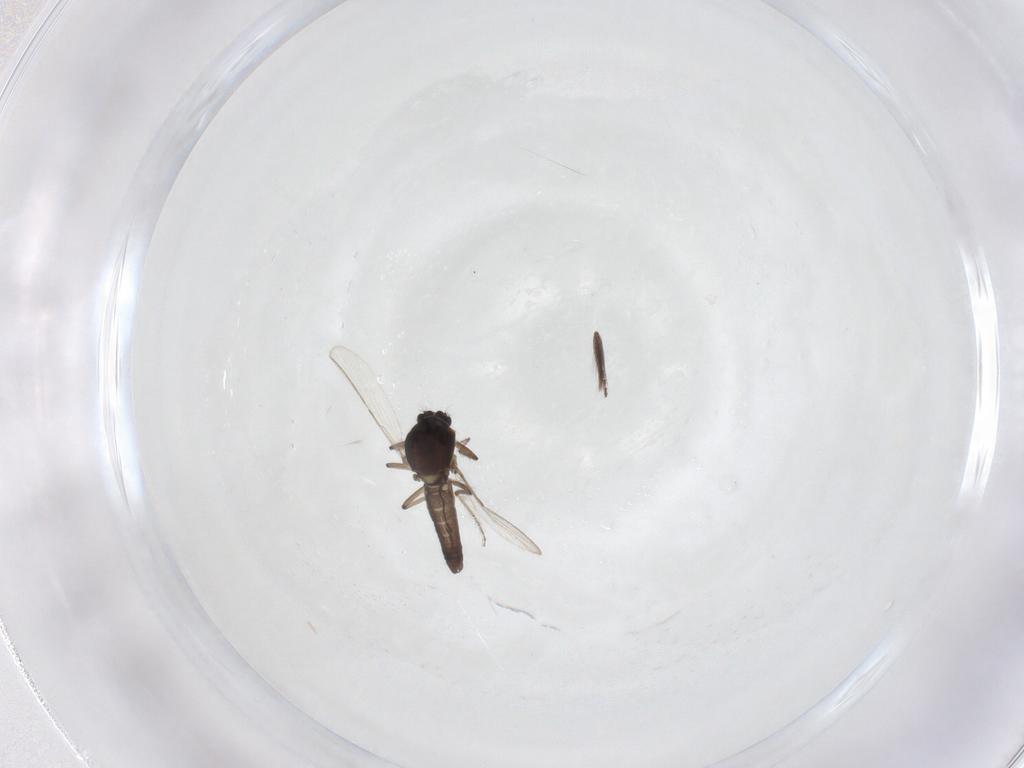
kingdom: Animalia
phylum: Arthropoda
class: Insecta
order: Diptera
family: Ceratopogonidae
